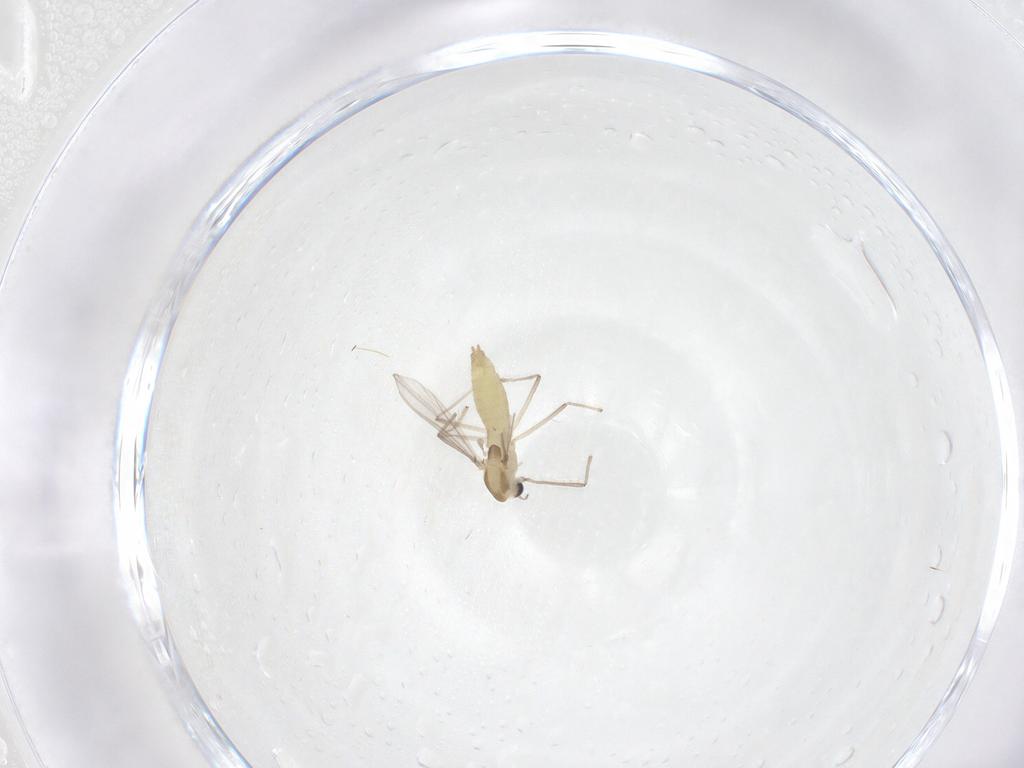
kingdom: Animalia
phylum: Arthropoda
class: Insecta
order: Diptera
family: Chironomidae
